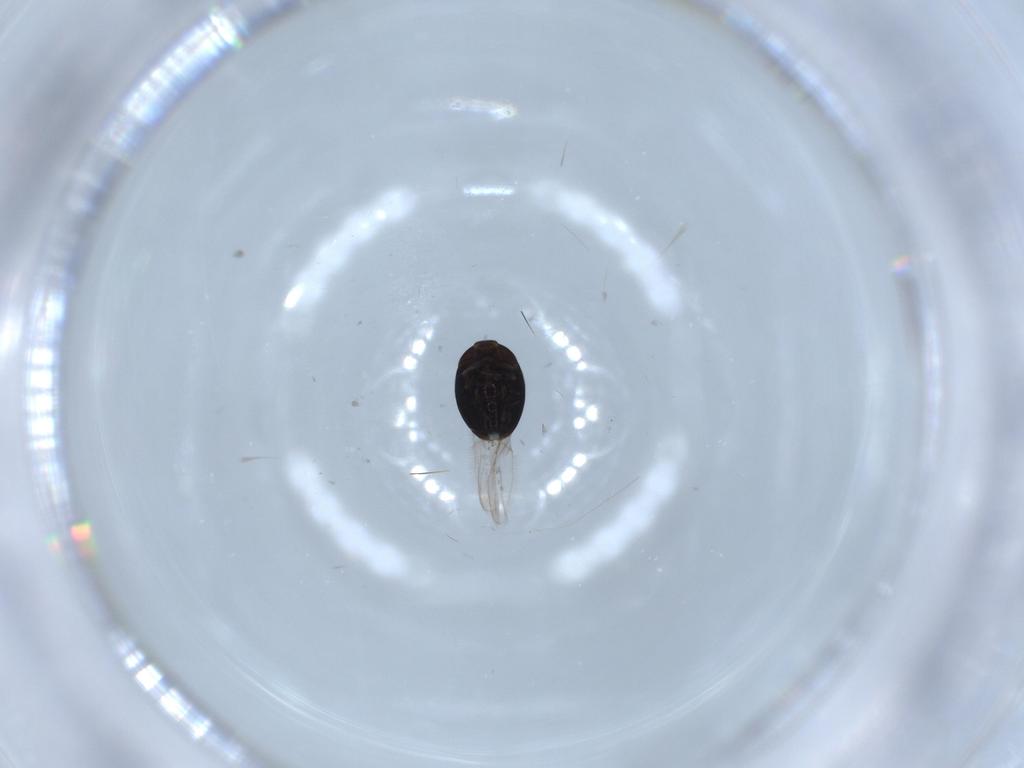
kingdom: Animalia
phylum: Arthropoda
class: Insecta
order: Coleoptera
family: Corylophidae
